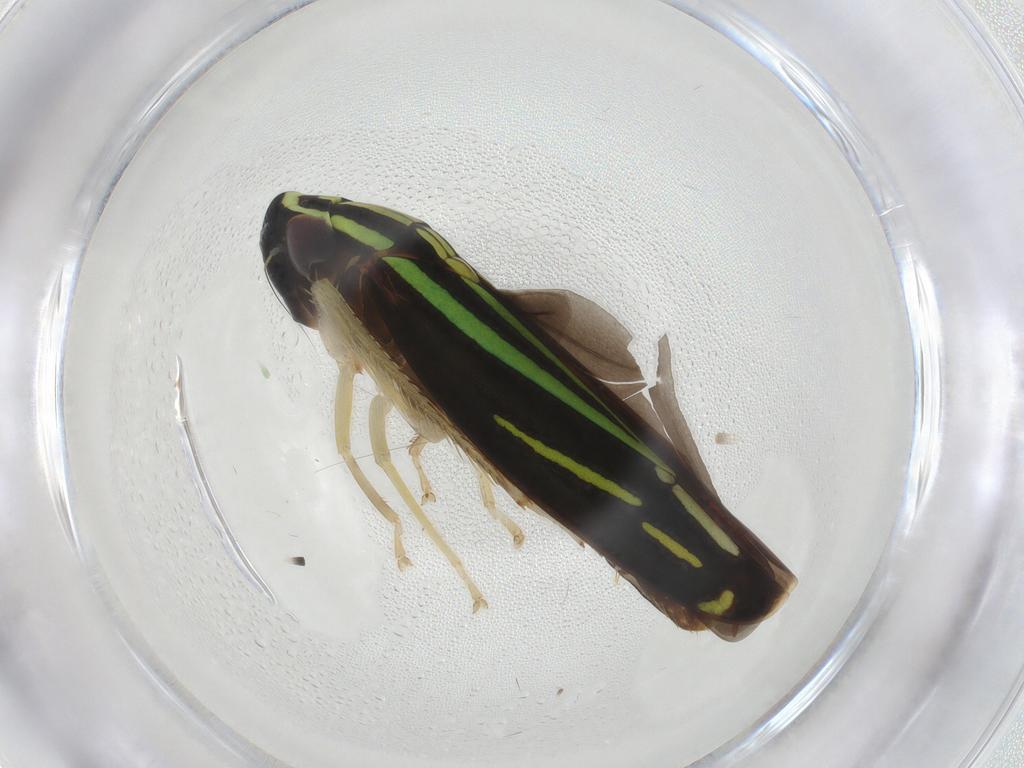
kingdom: Animalia
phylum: Arthropoda
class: Insecta
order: Hemiptera
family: Cicadellidae
